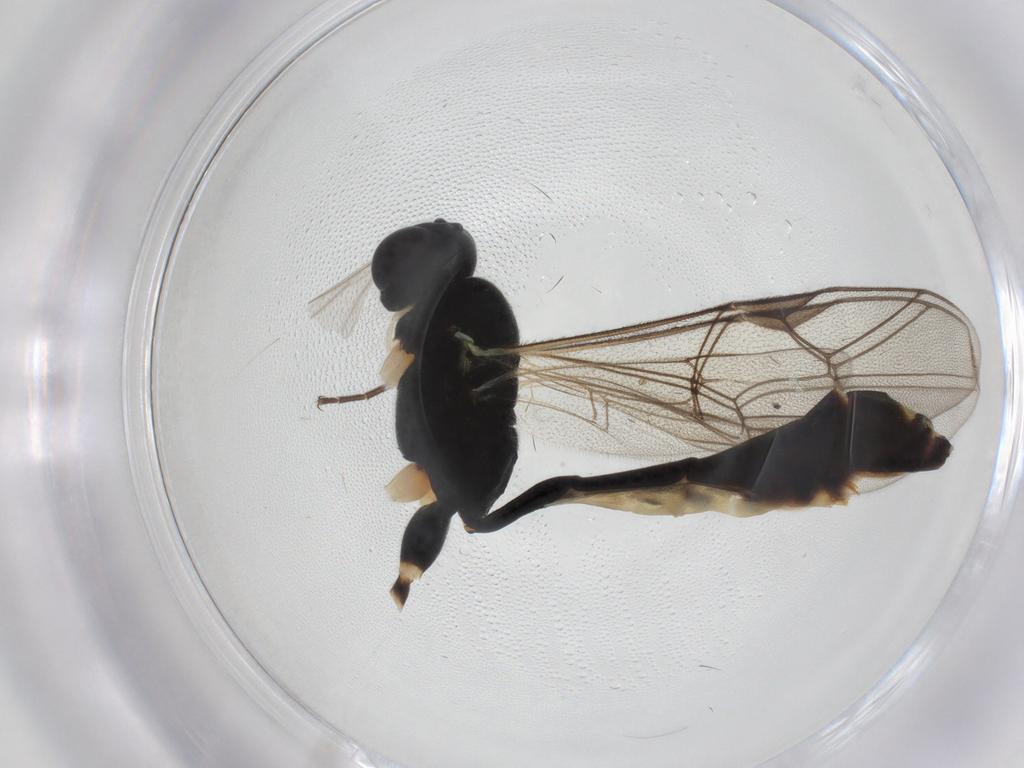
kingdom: Animalia
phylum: Arthropoda
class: Insecta
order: Hymenoptera
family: Ichneumonidae
